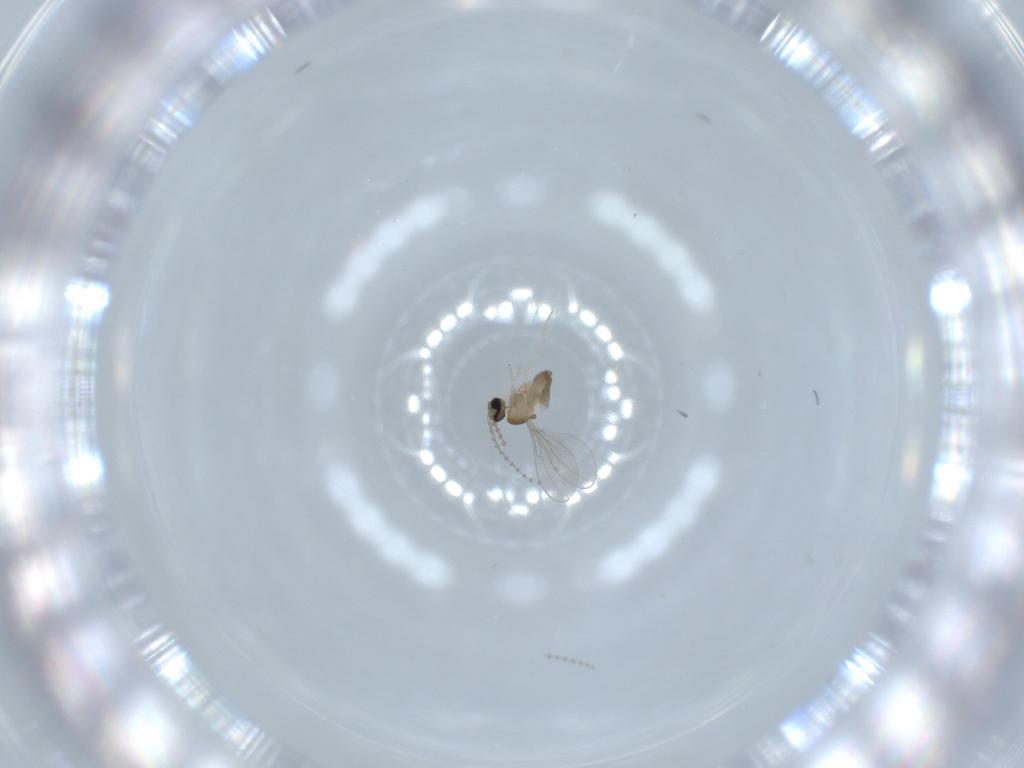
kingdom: Animalia
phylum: Arthropoda
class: Insecta
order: Diptera
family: Cecidomyiidae
